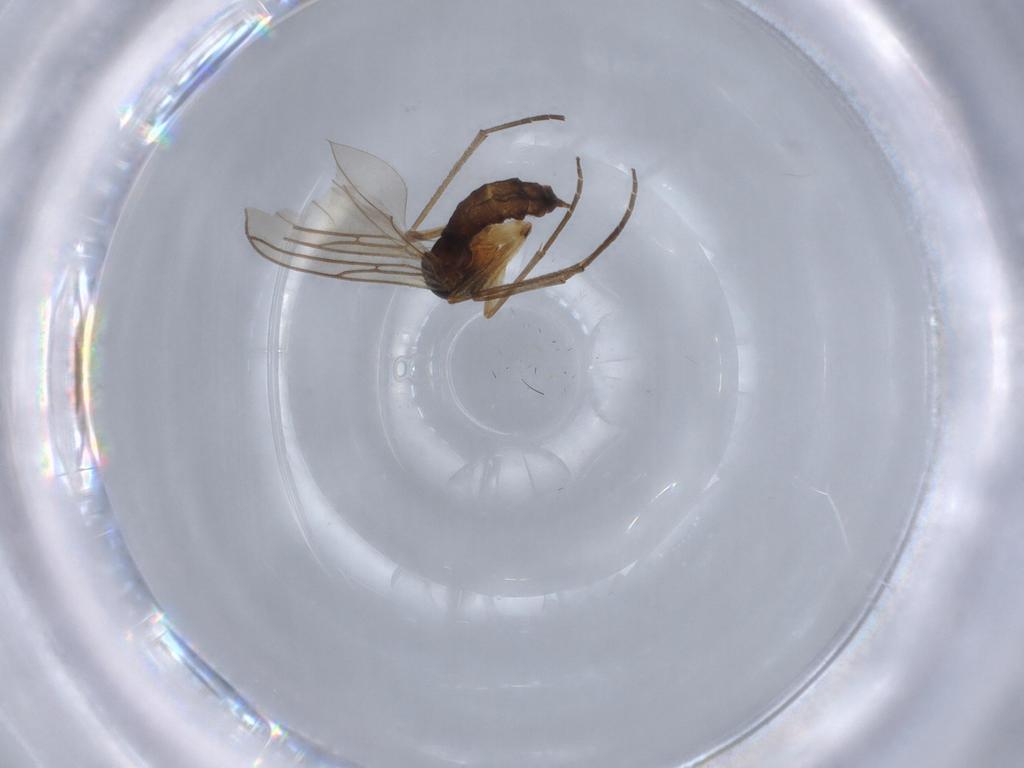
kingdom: Animalia
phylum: Arthropoda
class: Insecta
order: Diptera
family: Sciaridae
